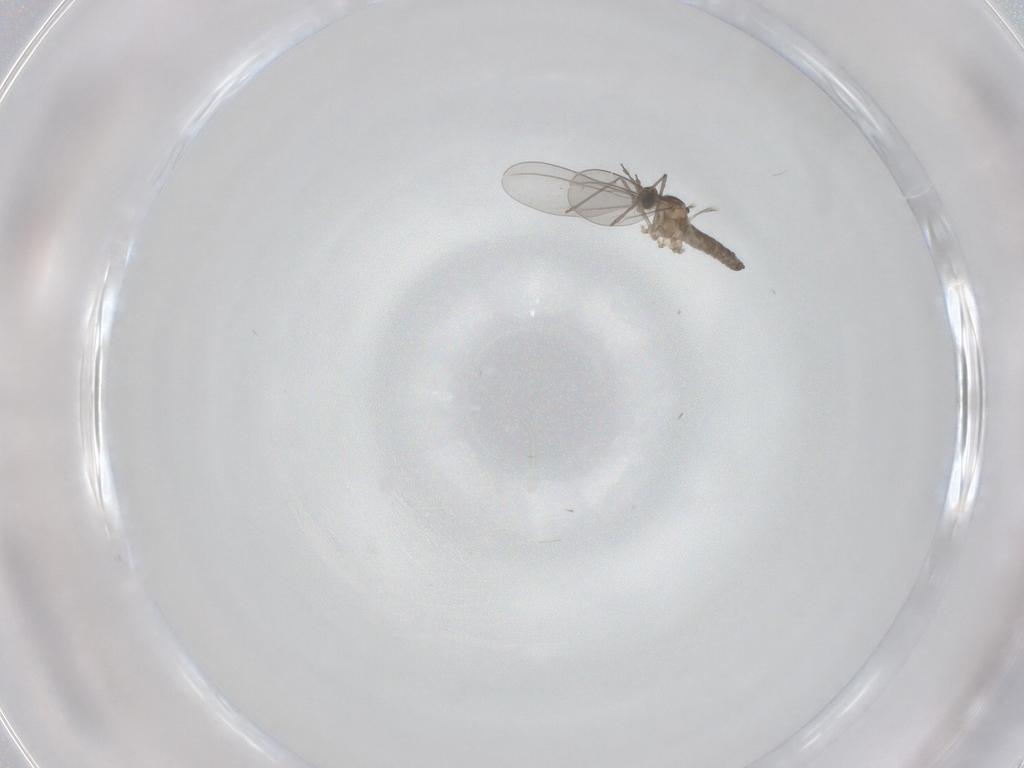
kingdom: Animalia
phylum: Arthropoda
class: Insecta
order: Diptera
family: Cecidomyiidae
